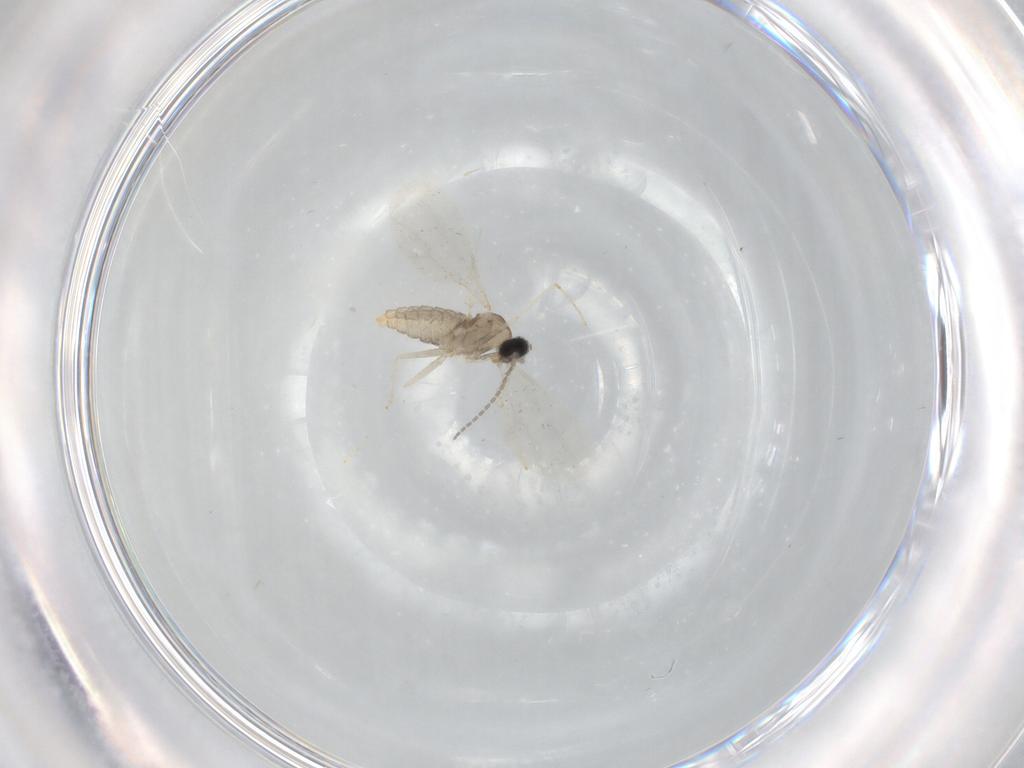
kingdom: Animalia
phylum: Arthropoda
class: Insecta
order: Diptera
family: Cecidomyiidae
